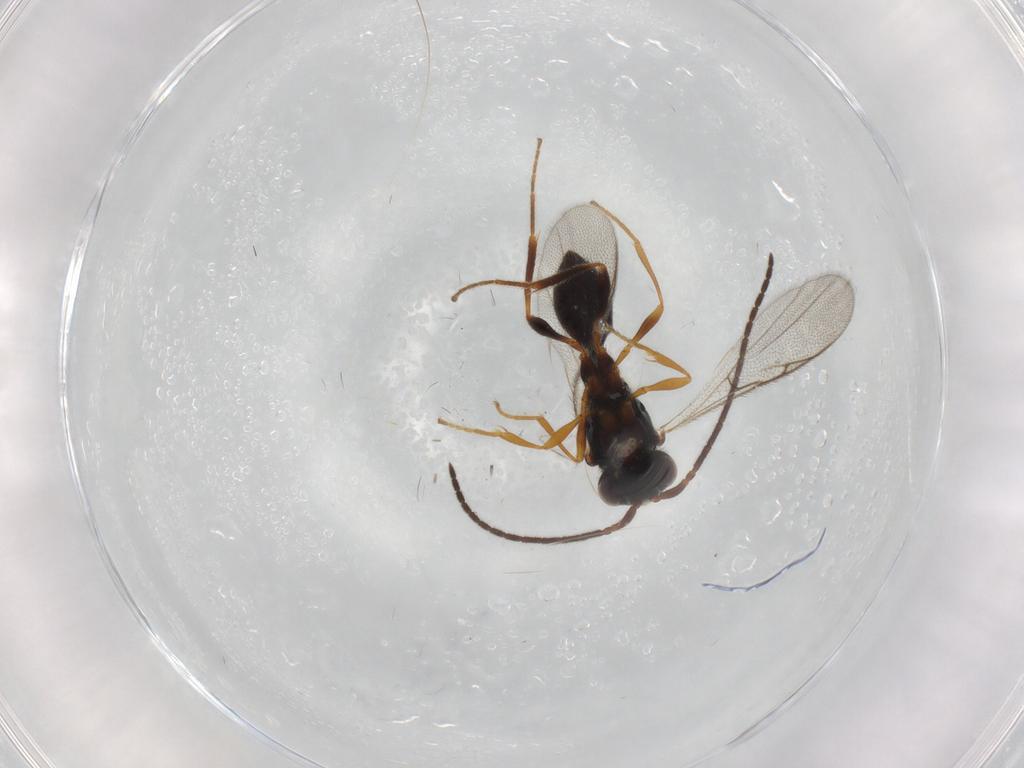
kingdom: Animalia
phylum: Arthropoda
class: Insecta
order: Hymenoptera
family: Diapriidae
